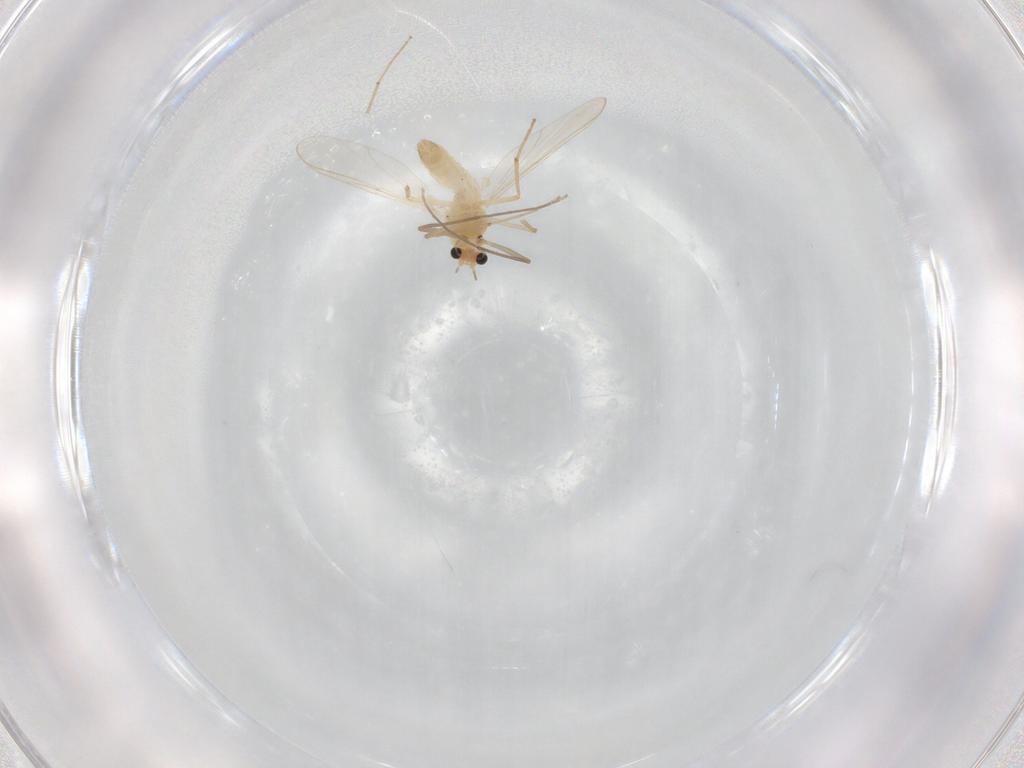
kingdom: Animalia
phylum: Arthropoda
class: Insecta
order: Diptera
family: Chironomidae
